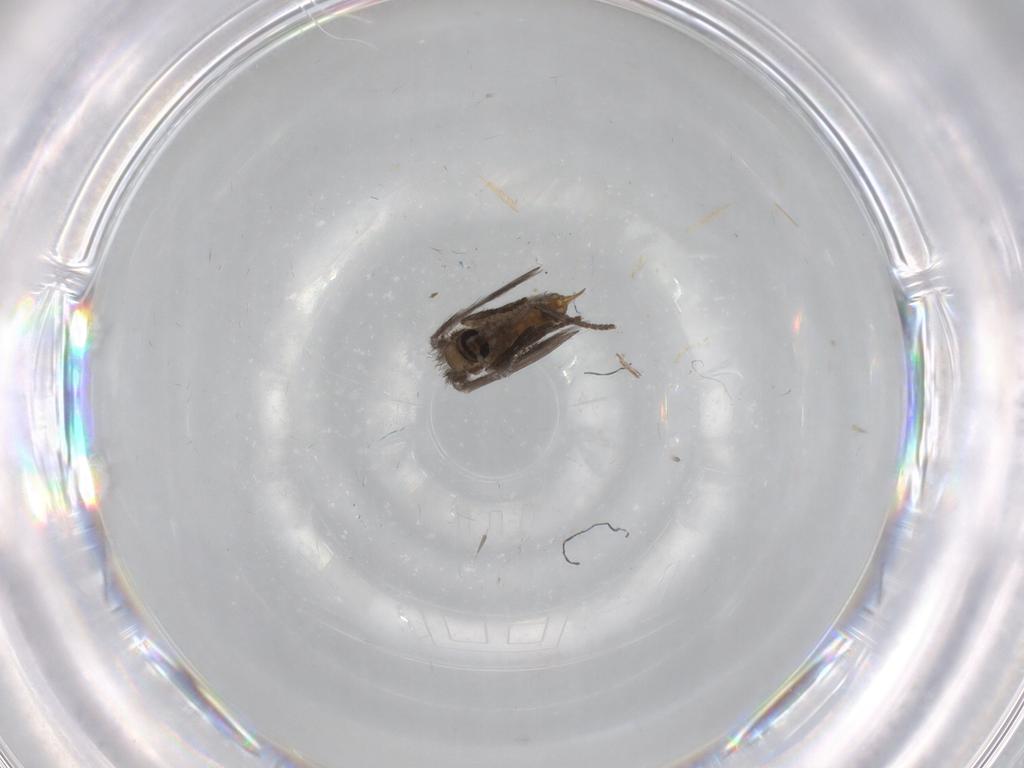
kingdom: Animalia
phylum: Arthropoda
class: Insecta
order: Diptera
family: Psychodidae
